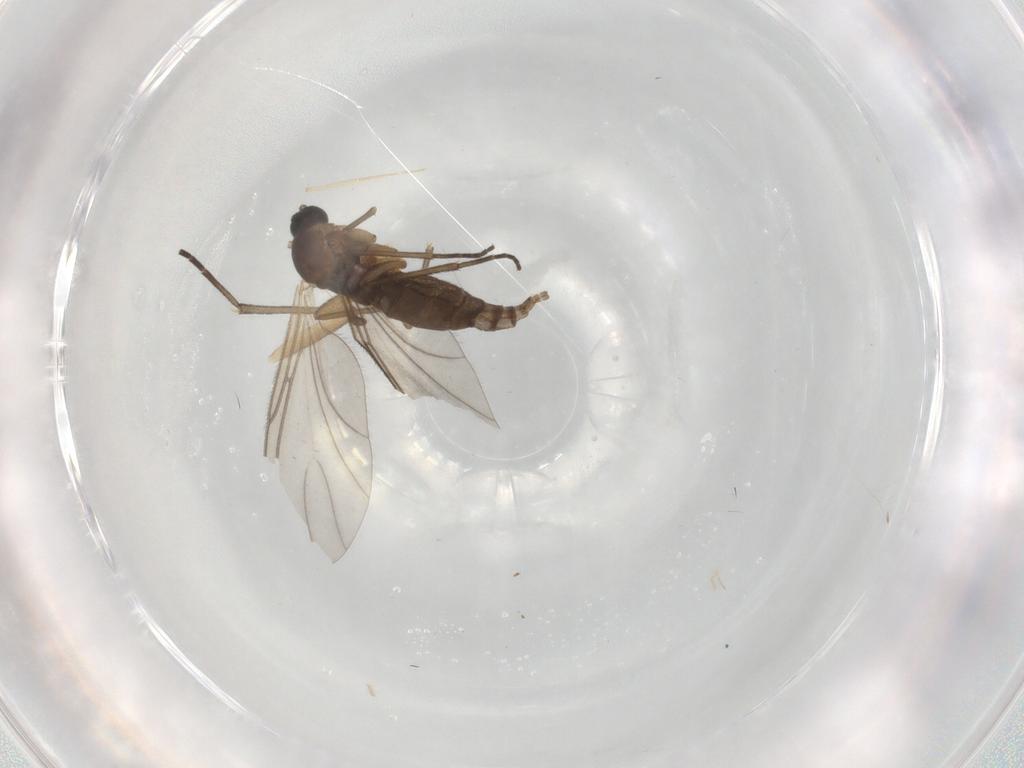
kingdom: Animalia
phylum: Arthropoda
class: Insecta
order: Diptera
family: Sciaridae
